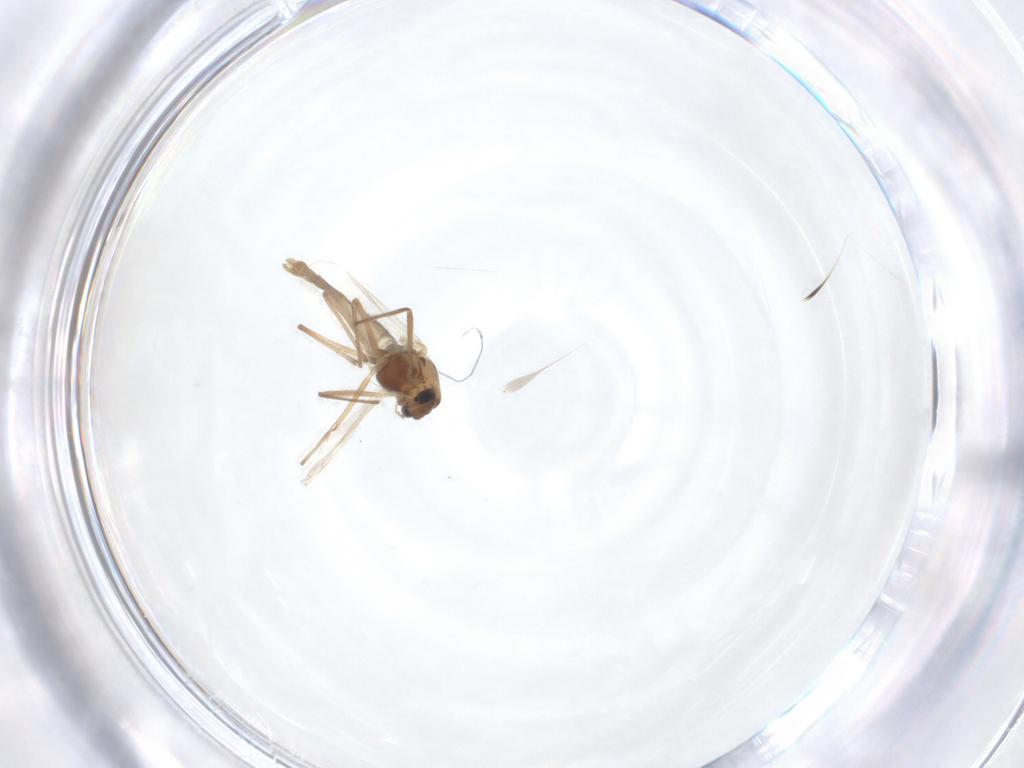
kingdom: Animalia
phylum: Arthropoda
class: Insecta
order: Diptera
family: Chironomidae
